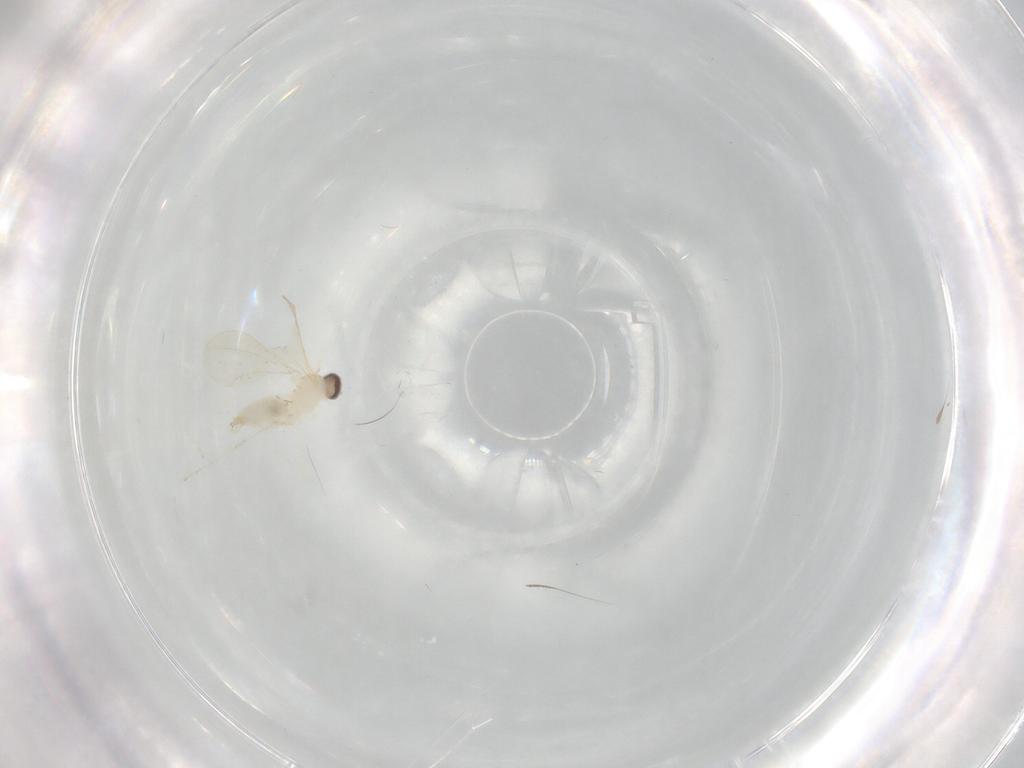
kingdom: Animalia
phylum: Arthropoda
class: Insecta
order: Diptera
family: Cecidomyiidae
